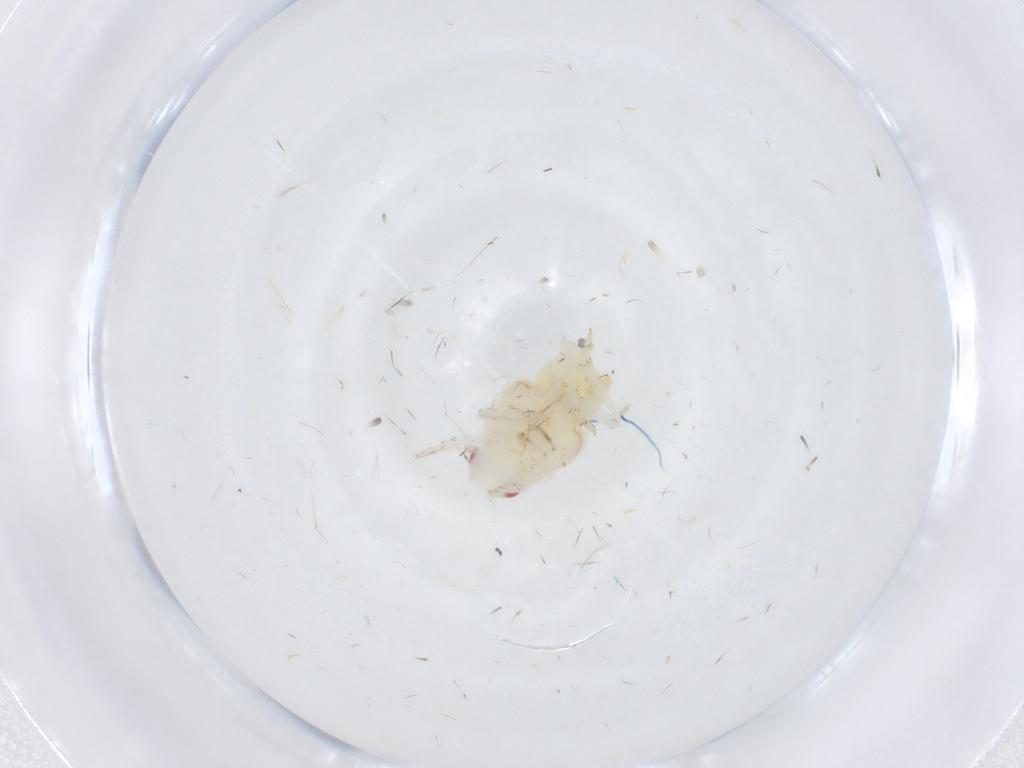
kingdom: Animalia
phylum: Arthropoda
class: Insecta
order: Hemiptera
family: Flatidae
